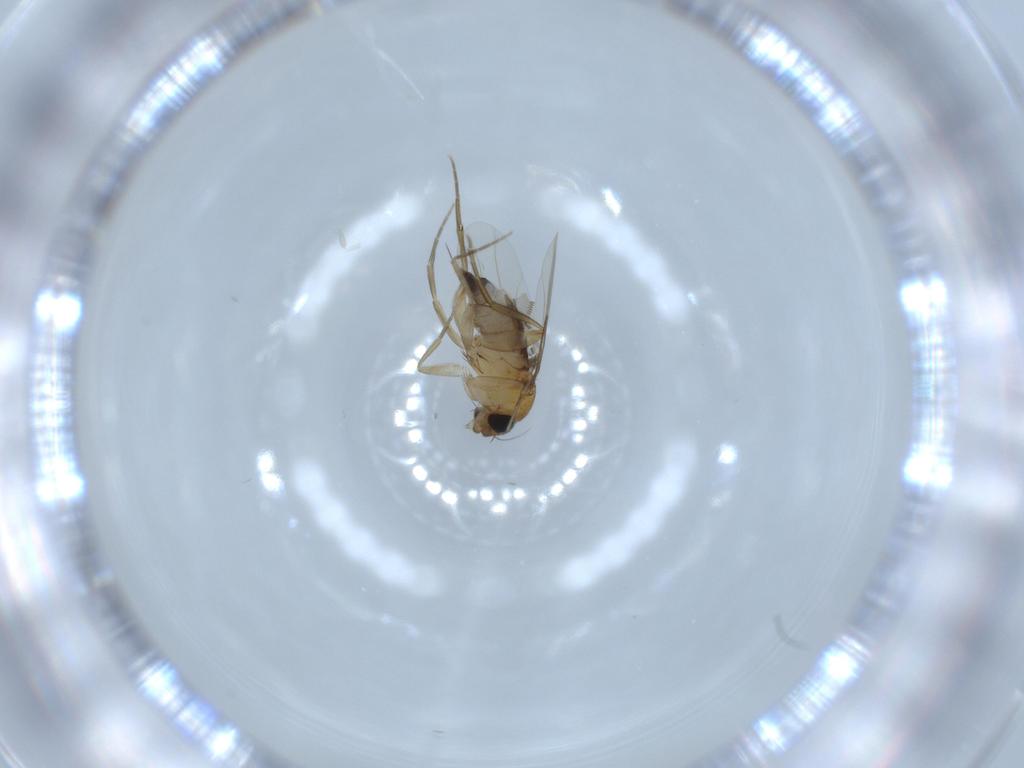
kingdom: Animalia
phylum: Arthropoda
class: Insecta
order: Diptera
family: Phoridae
